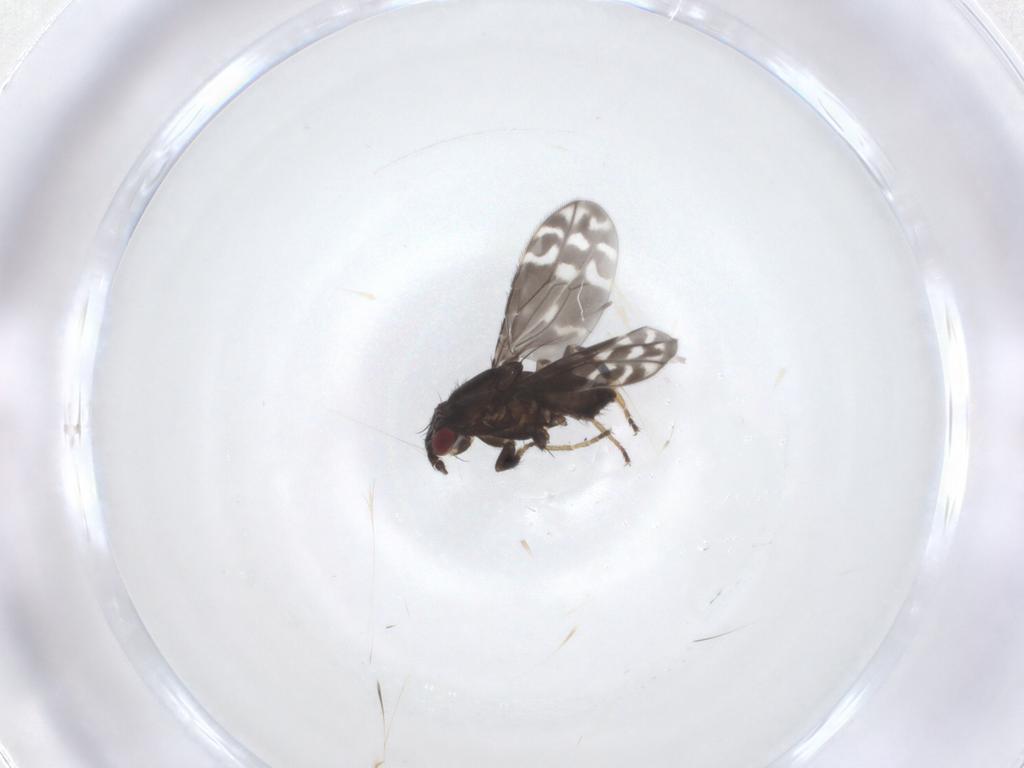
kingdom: Animalia
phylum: Arthropoda
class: Insecta
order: Diptera
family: Sphaeroceridae
